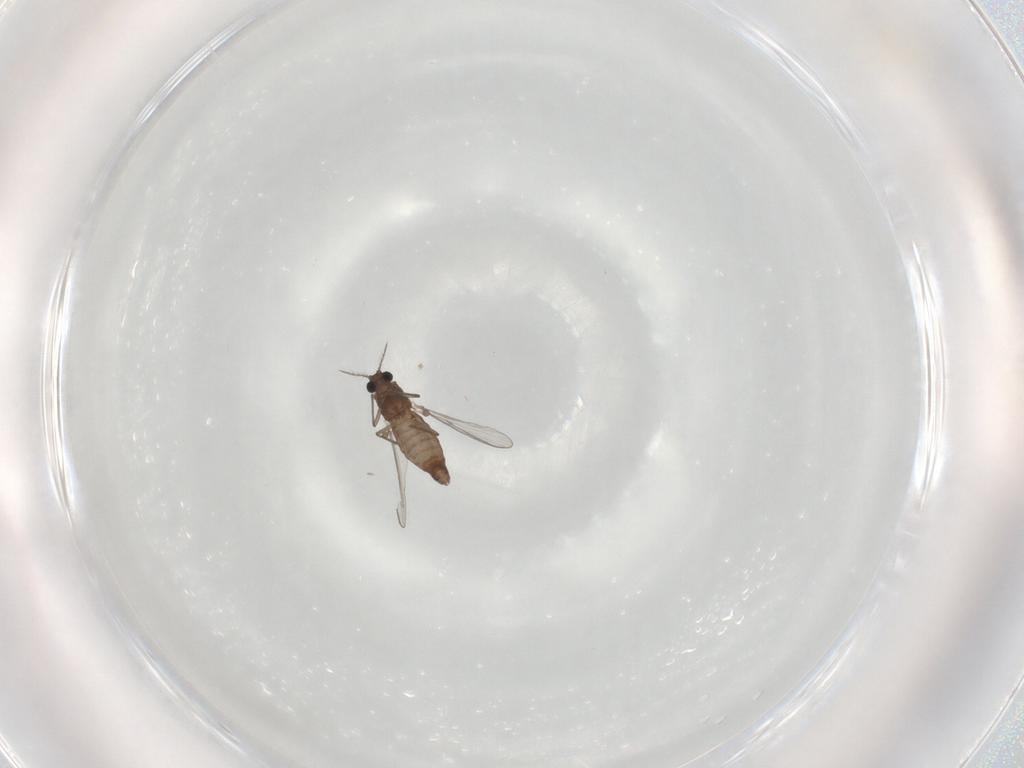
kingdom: Animalia
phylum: Arthropoda
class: Insecta
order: Diptera
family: Chironomidae
